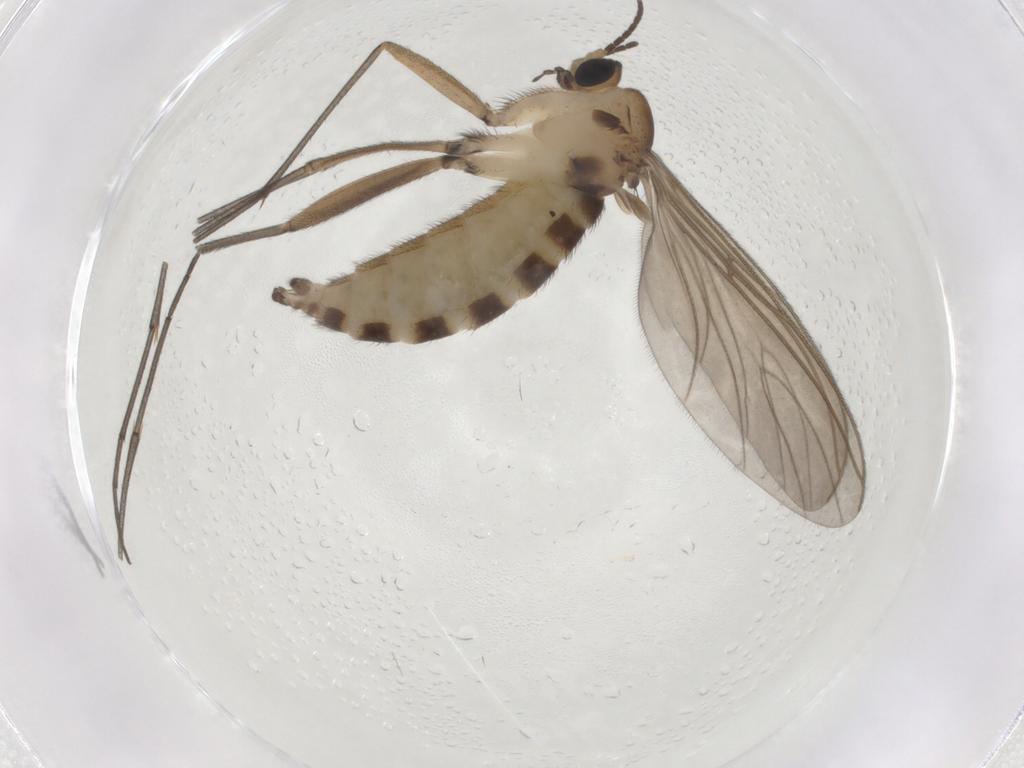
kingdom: Animalia
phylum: Arthropoda
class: Insecta
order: Diptera
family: Sciaridae
